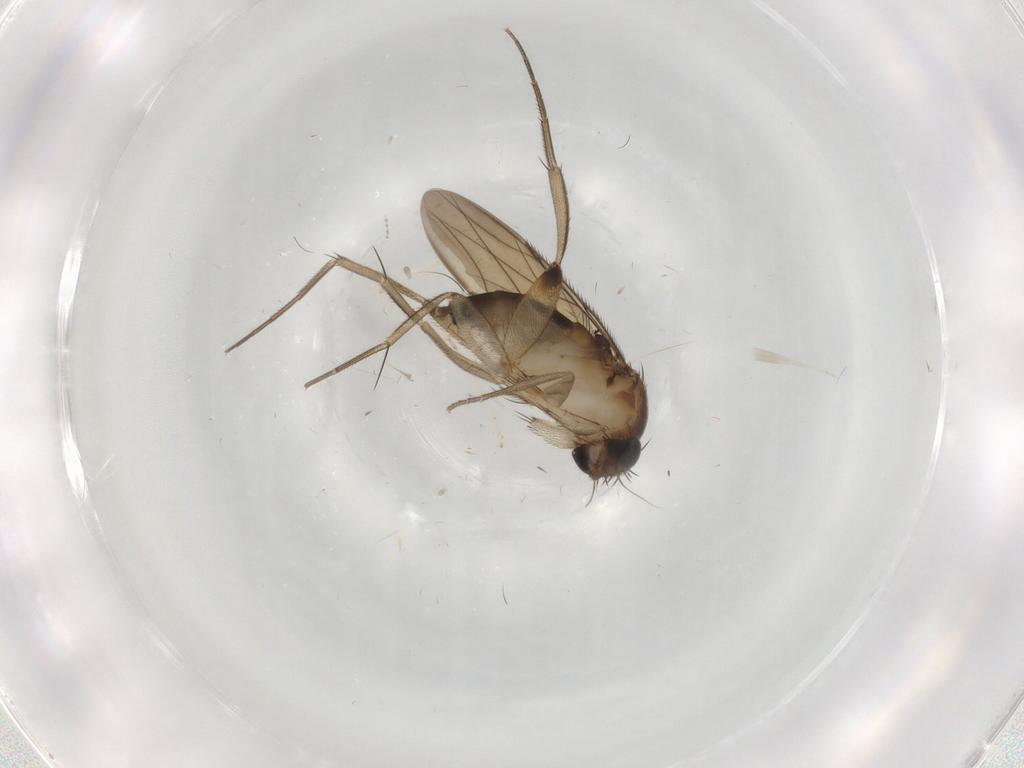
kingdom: Animalia
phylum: Arthropoda
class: Insecta
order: Diptera
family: Phoridae
